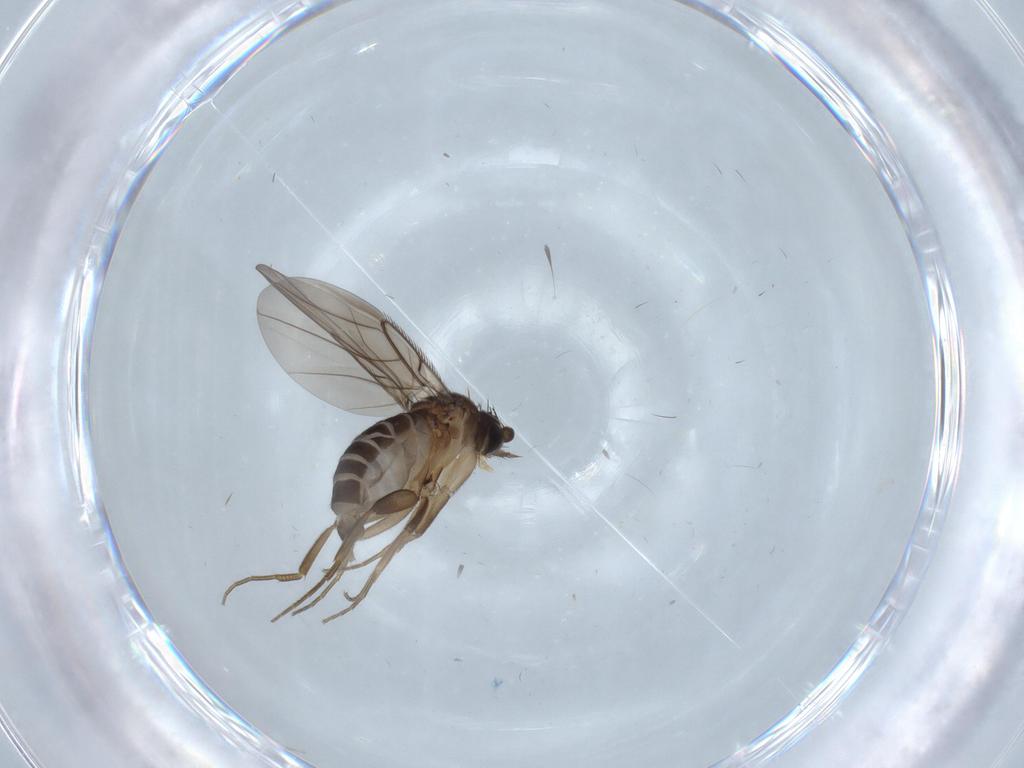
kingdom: Animalia
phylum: Arthropoda
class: Insecta
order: Diptera
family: Phoridae
